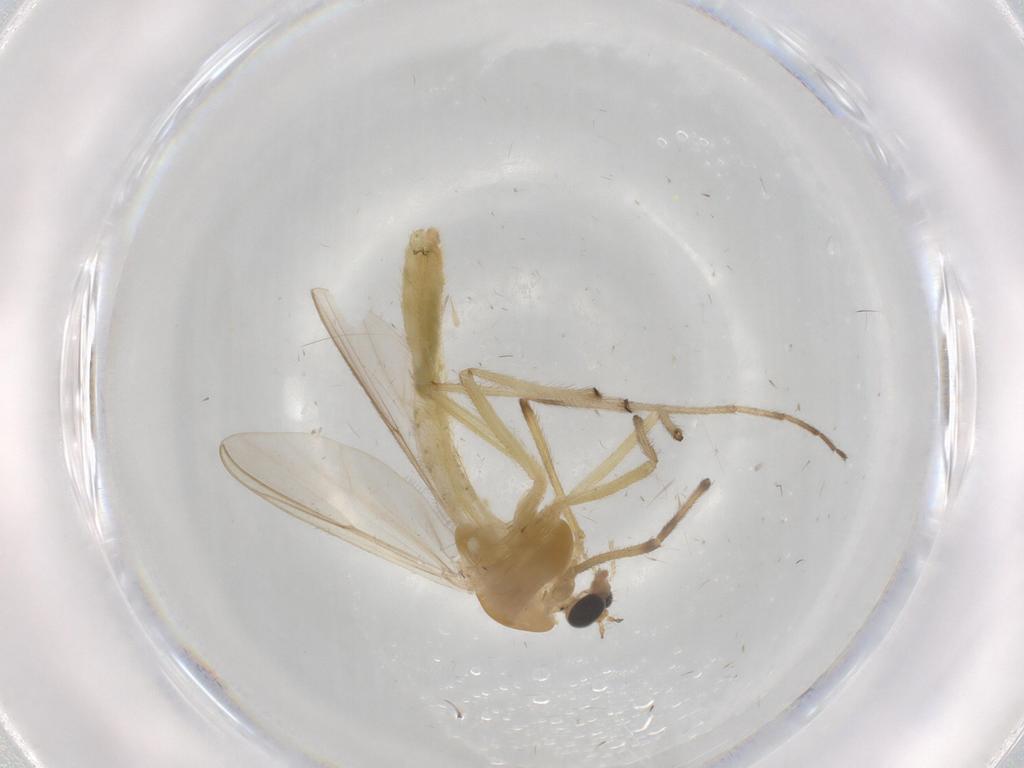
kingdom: Animalia
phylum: Arthropoda
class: Insecta
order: Diptera
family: Chironomidae
